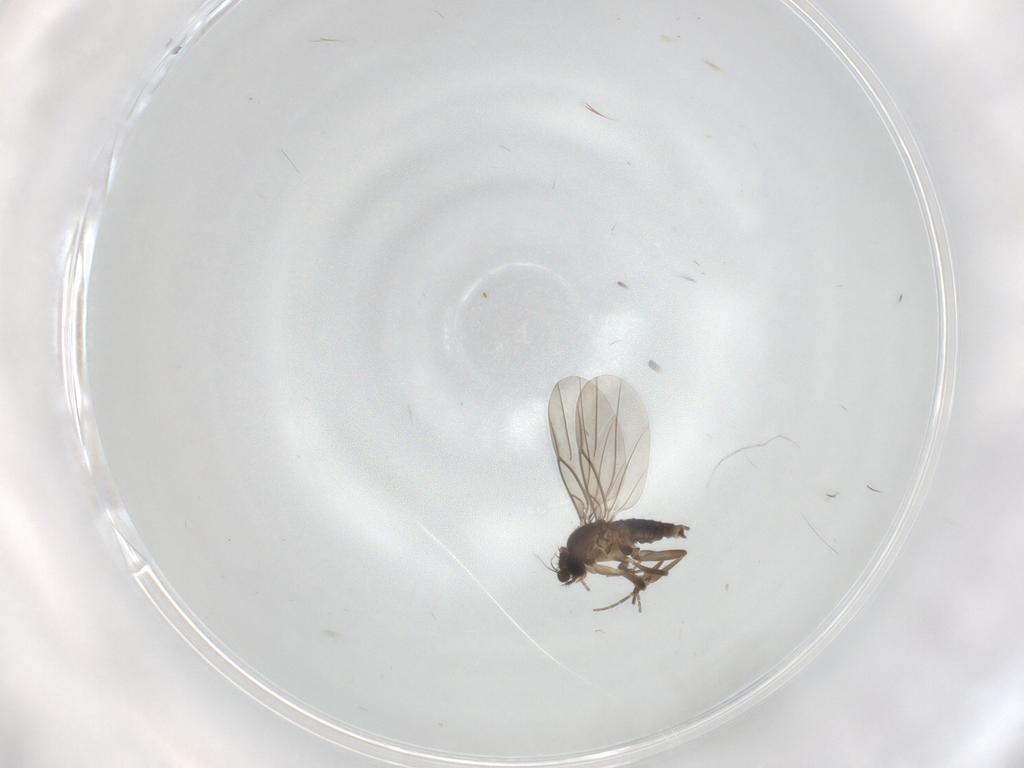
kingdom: Animalia
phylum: Arthropoda
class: Insecta
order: Diptera
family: Phoridae
